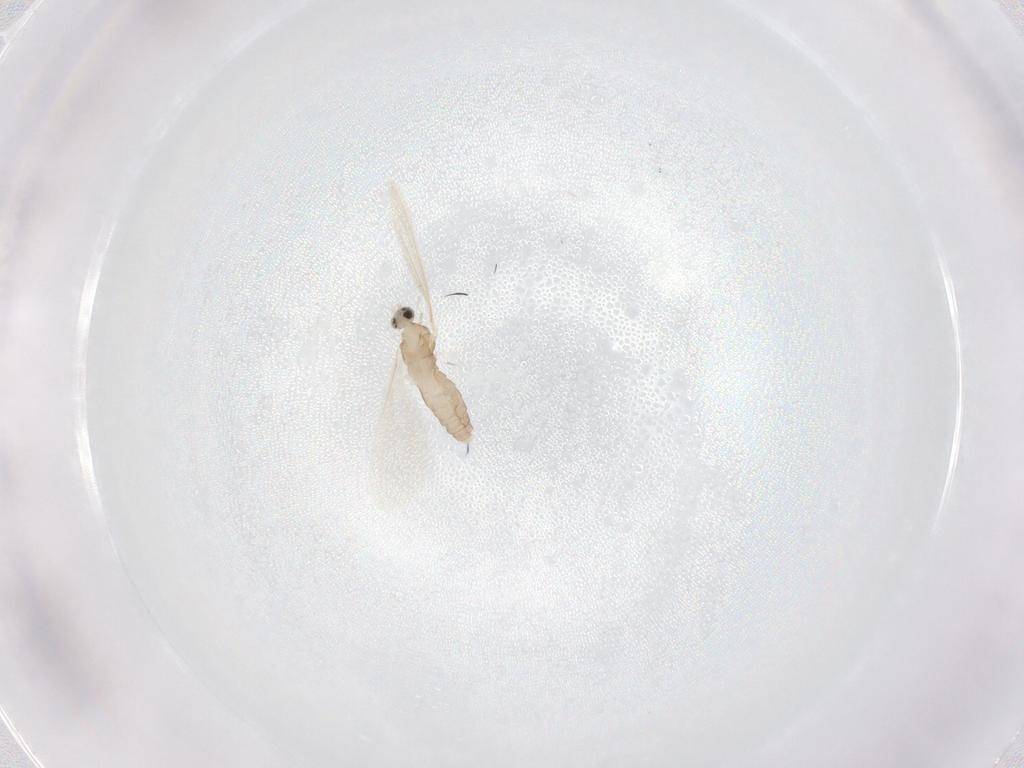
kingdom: Animalia
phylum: Arthropoda
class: Insecta
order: Diptera
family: Cecidomyiidae
